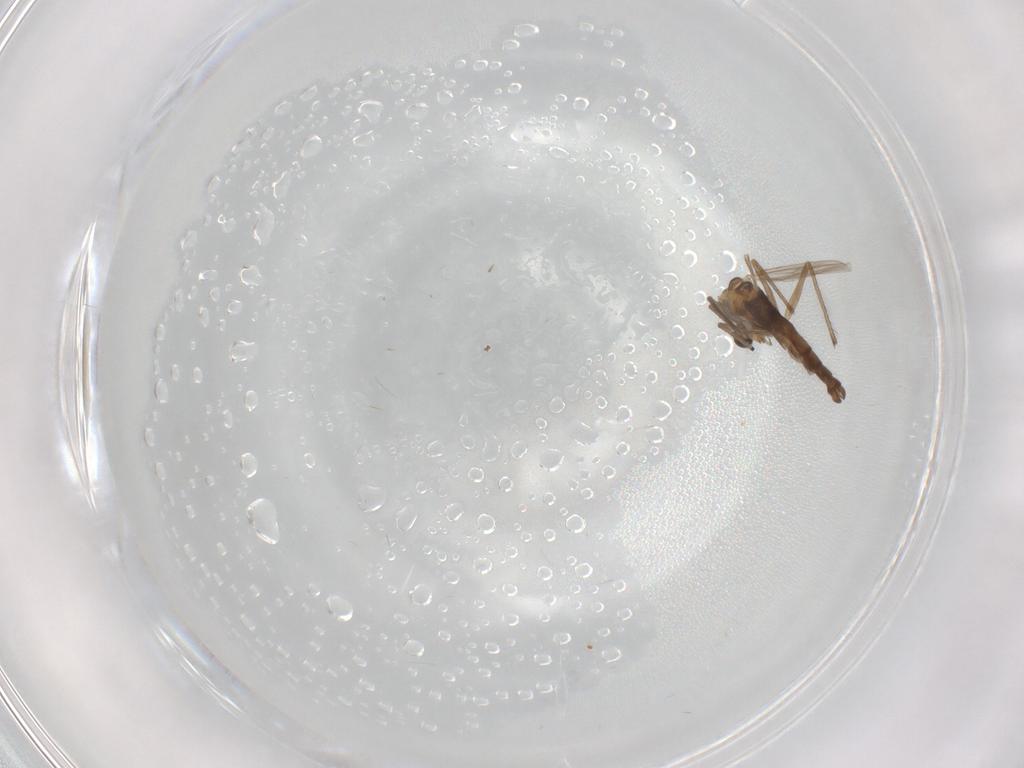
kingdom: Animalia
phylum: Arthropoda
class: Insecta
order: Diptera
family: Chironomidae
